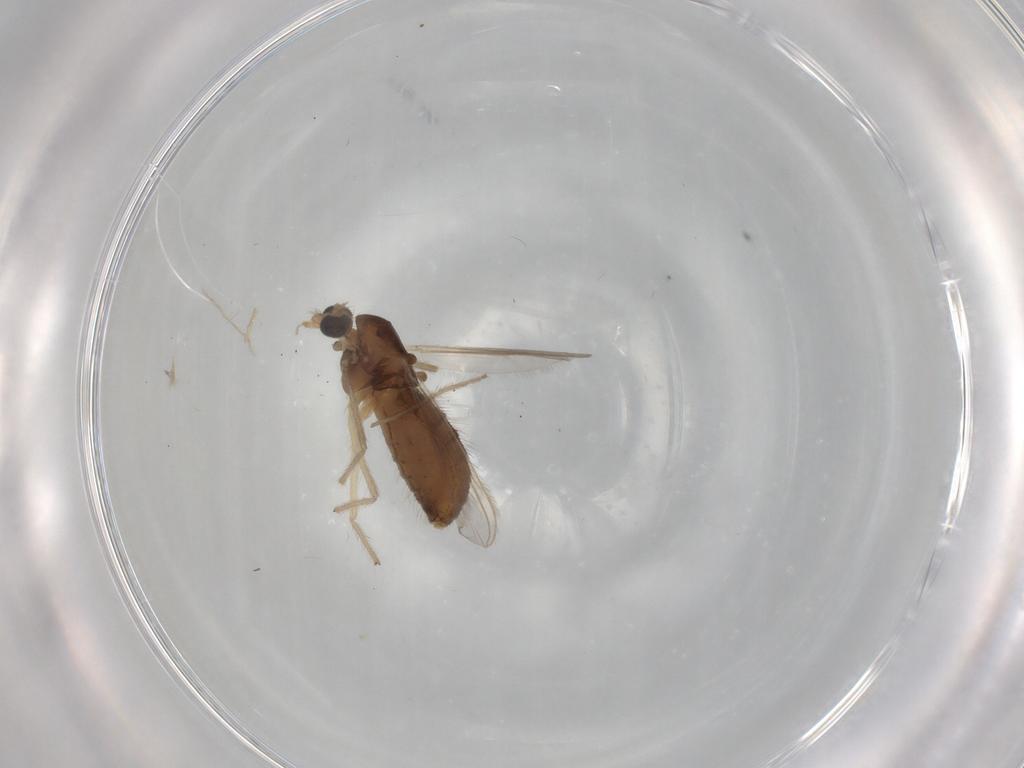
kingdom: Animalia
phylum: Arthropoda
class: Insecta
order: Diptera
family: Chironomidae
